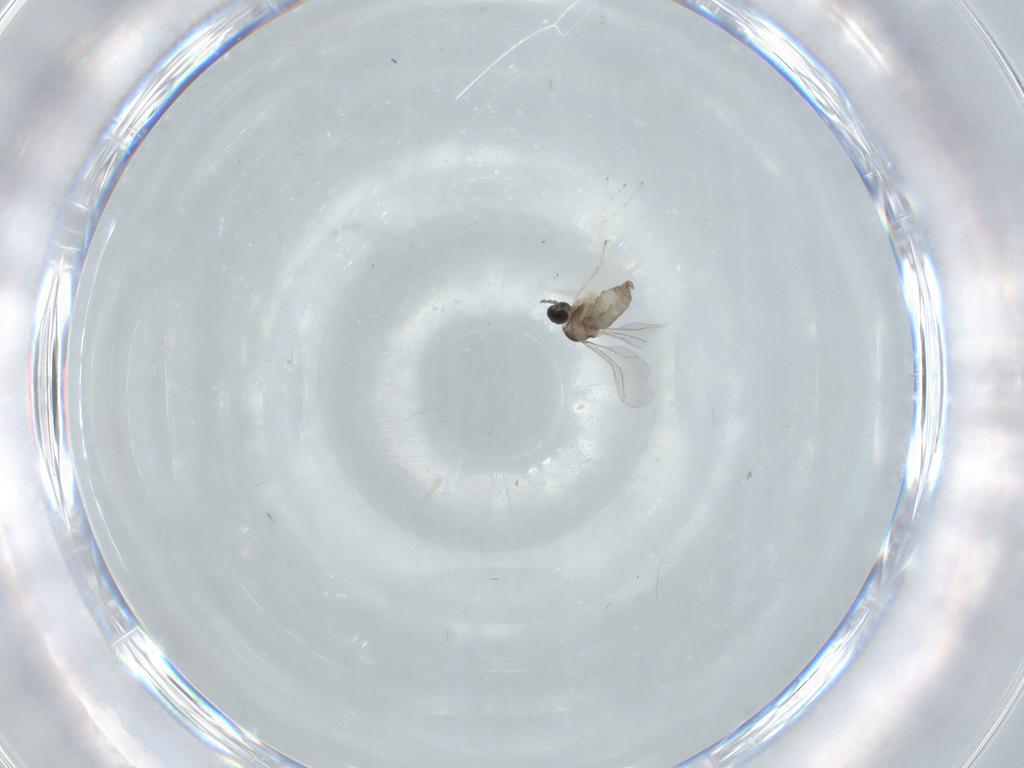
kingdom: Animalia
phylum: Arthropoda
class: Insecta
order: Diptera
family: Cecidomyiidae
